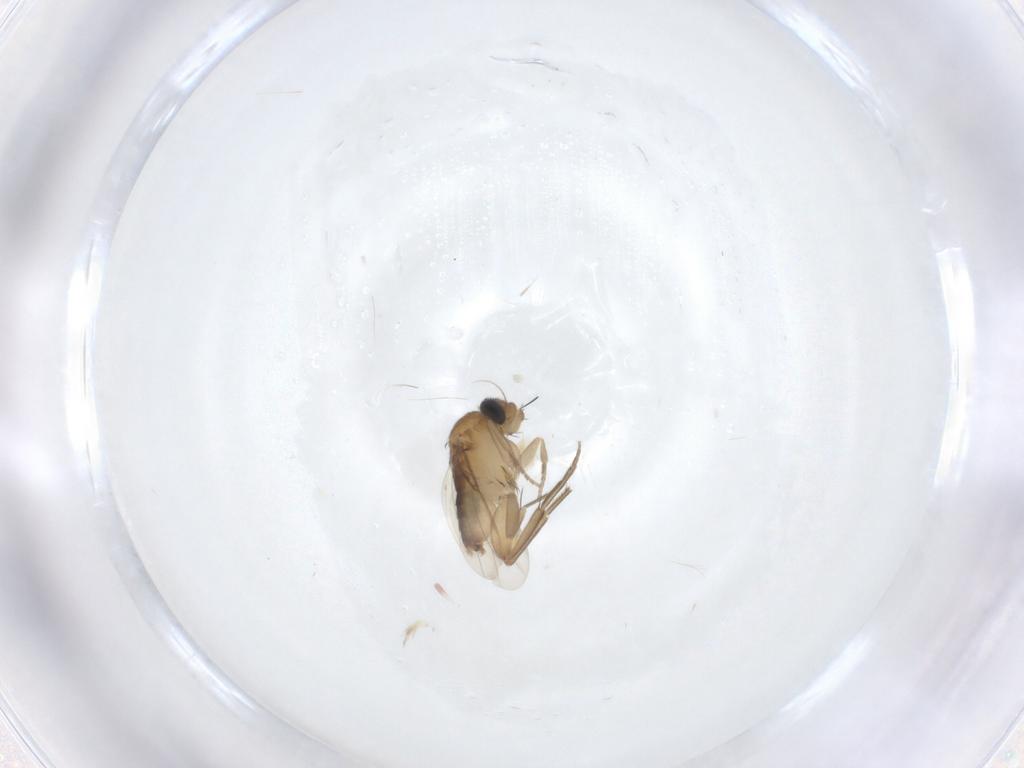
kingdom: Animalia
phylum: Arthropoda
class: Insecta
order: Diptera
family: Phoridae
